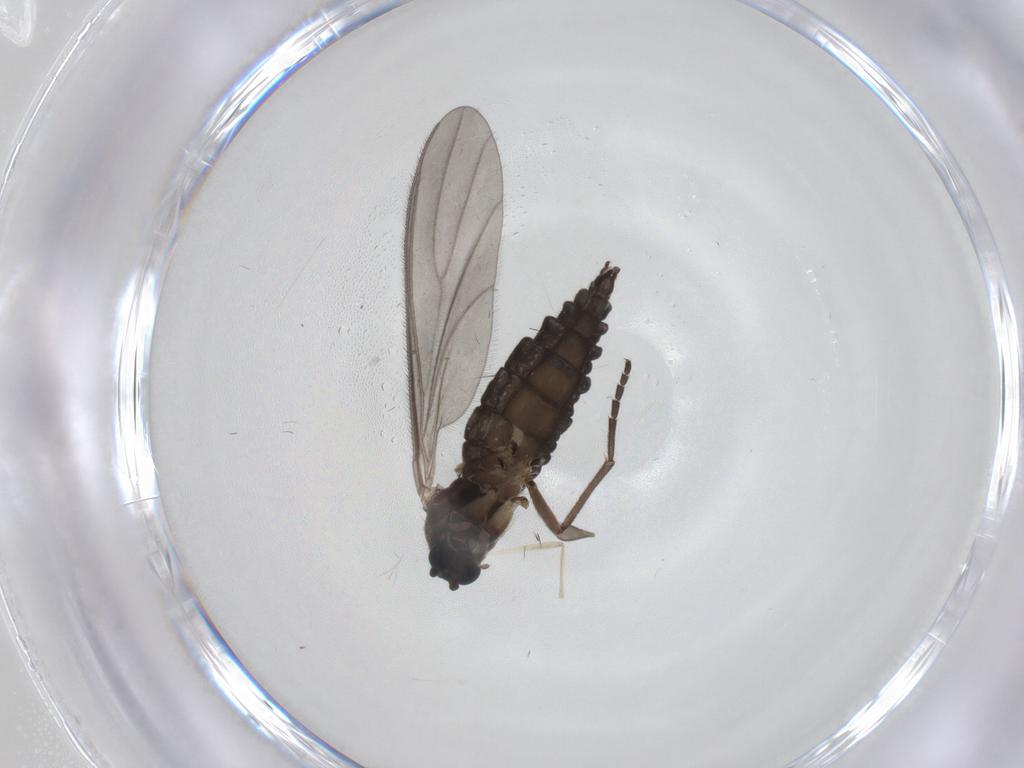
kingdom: Animalia
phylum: Arthropoda
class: Insecta
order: Diptera
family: Sciaridae
